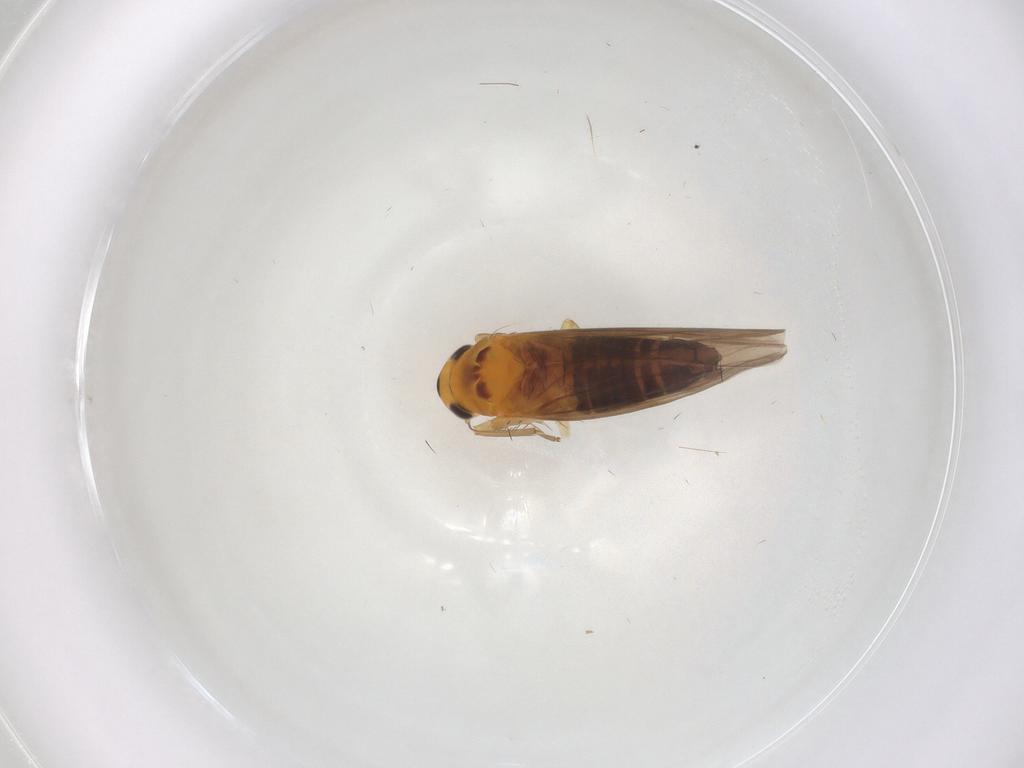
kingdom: Animalia
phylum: Arthropoda
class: Insecta
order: Hemiptera
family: Cicadellidae
